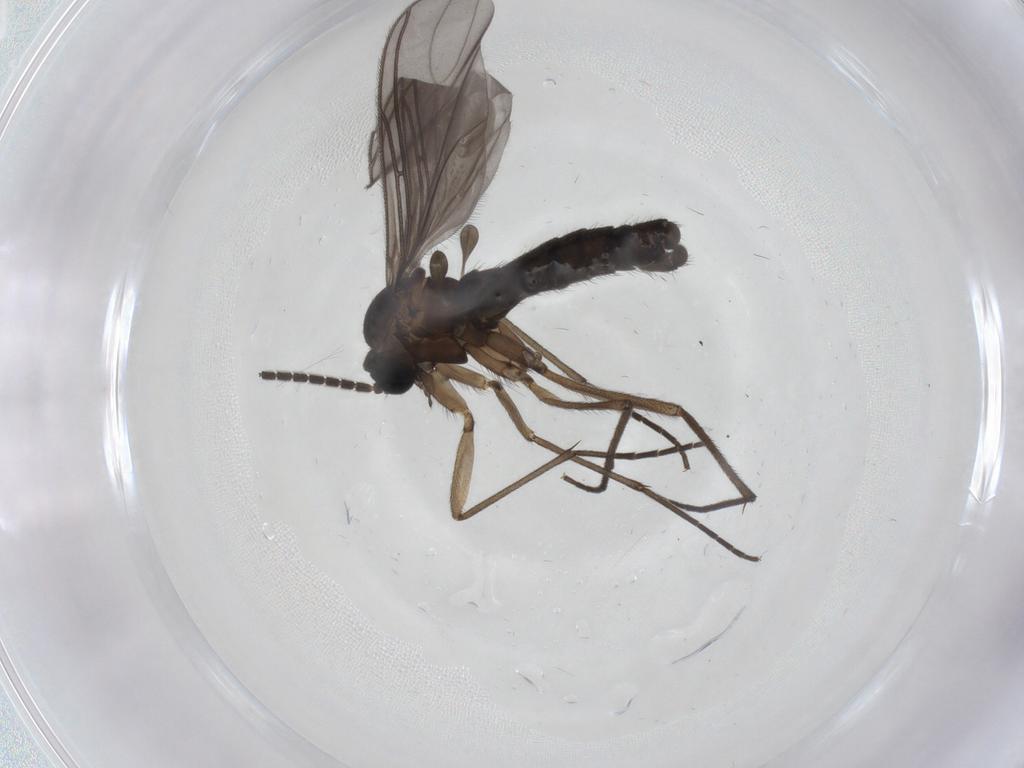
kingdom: Animalia
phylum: Arthropoda
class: Insecta
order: Diptera
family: Sciaridae
